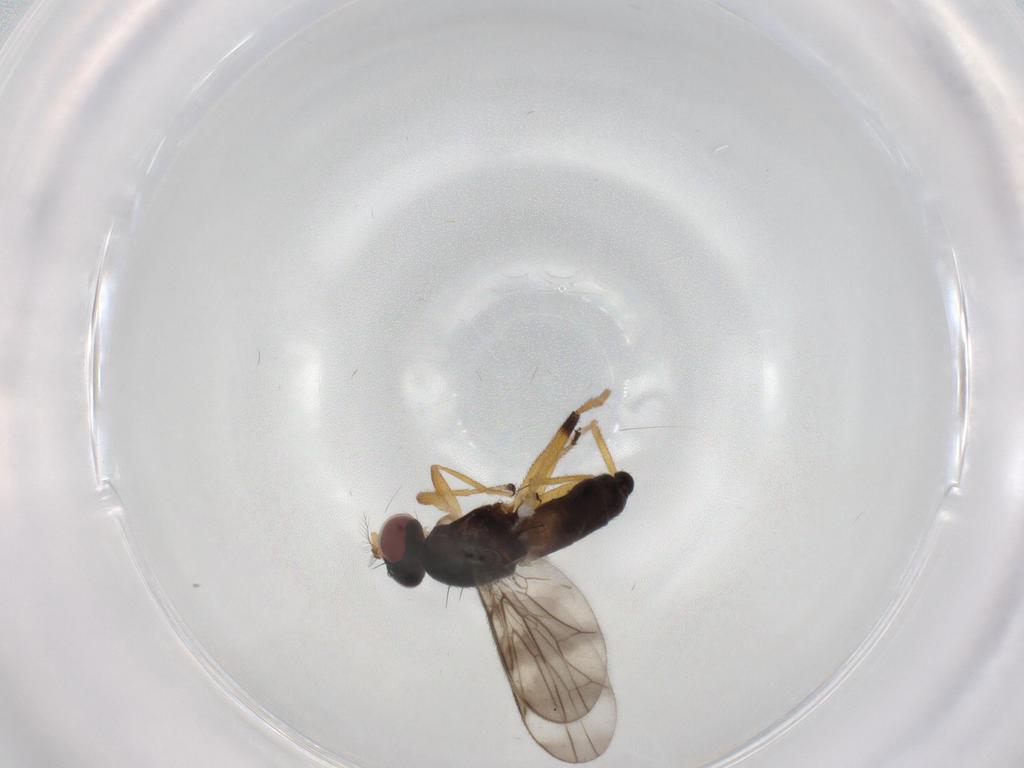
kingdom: Animalia
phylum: Arthropoda
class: Insecta
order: Diptera
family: Periscelididae
